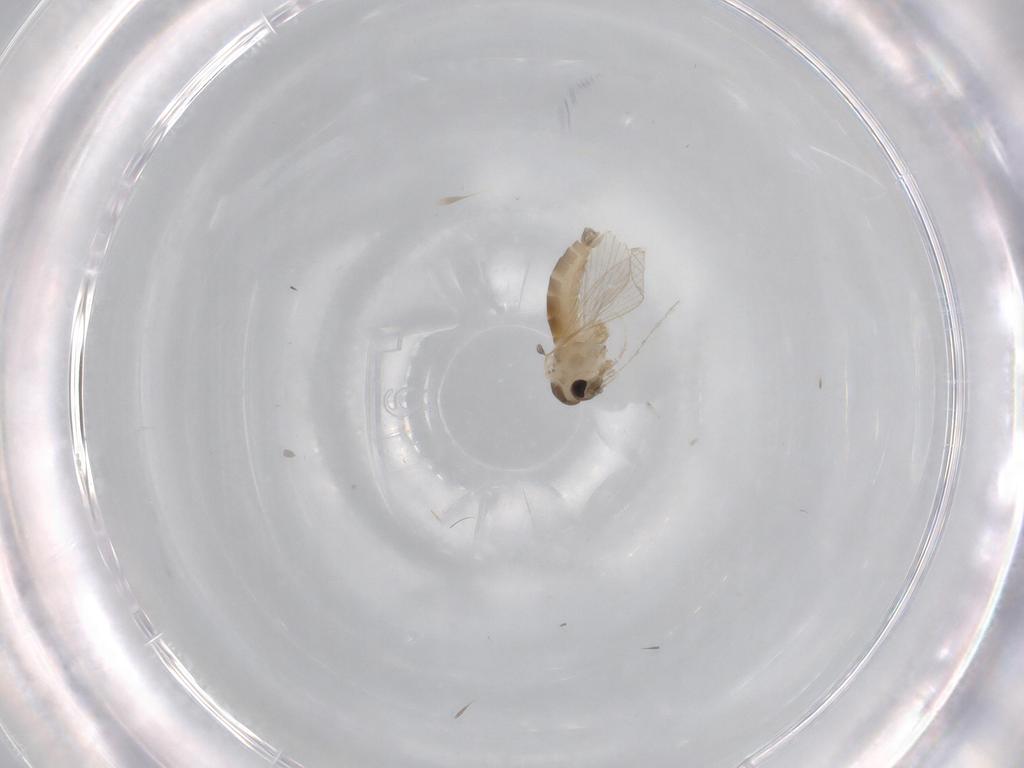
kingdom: Animalia
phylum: Arthropoda
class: Insecta
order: Diptera
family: Psychodidae
